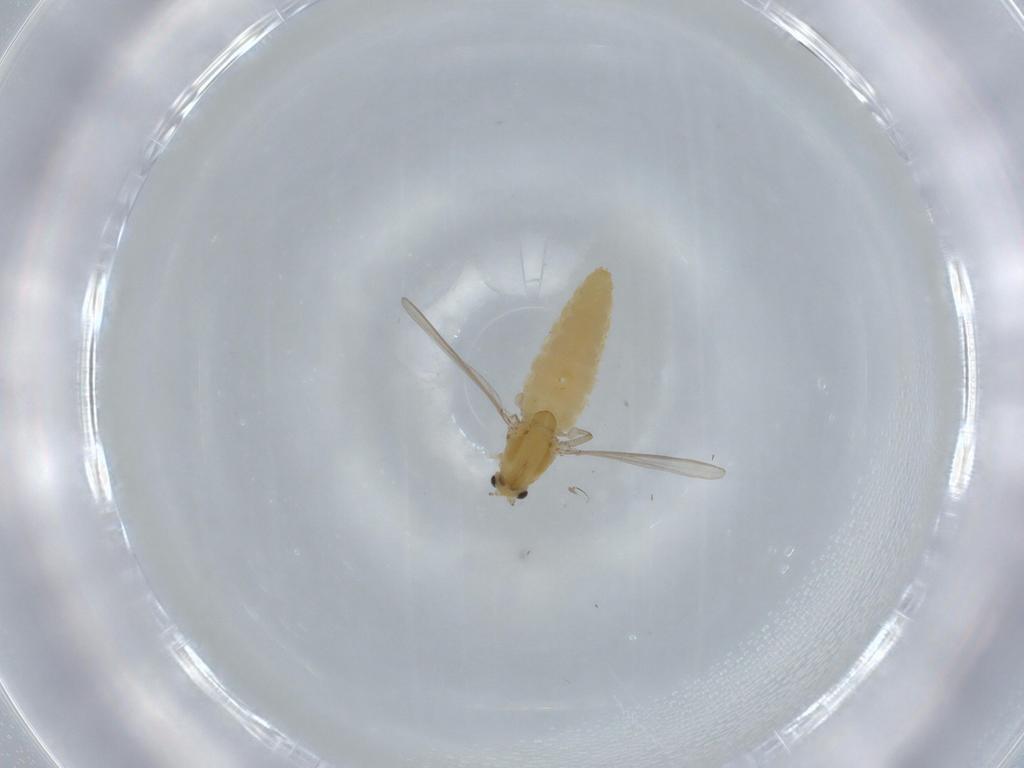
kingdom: Animalia
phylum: Arthropoda
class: Insecta
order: Diptera
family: Chironomidae
